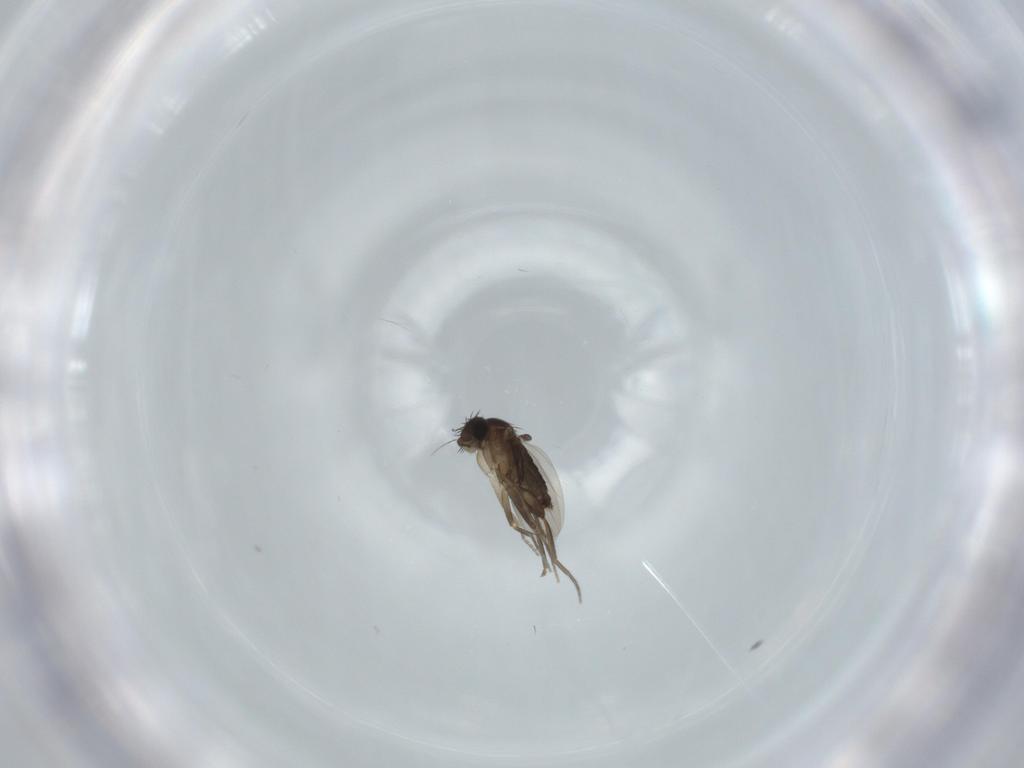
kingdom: Animalia
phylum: Arthropoda
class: Insecta
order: Diptera
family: Phoridae
